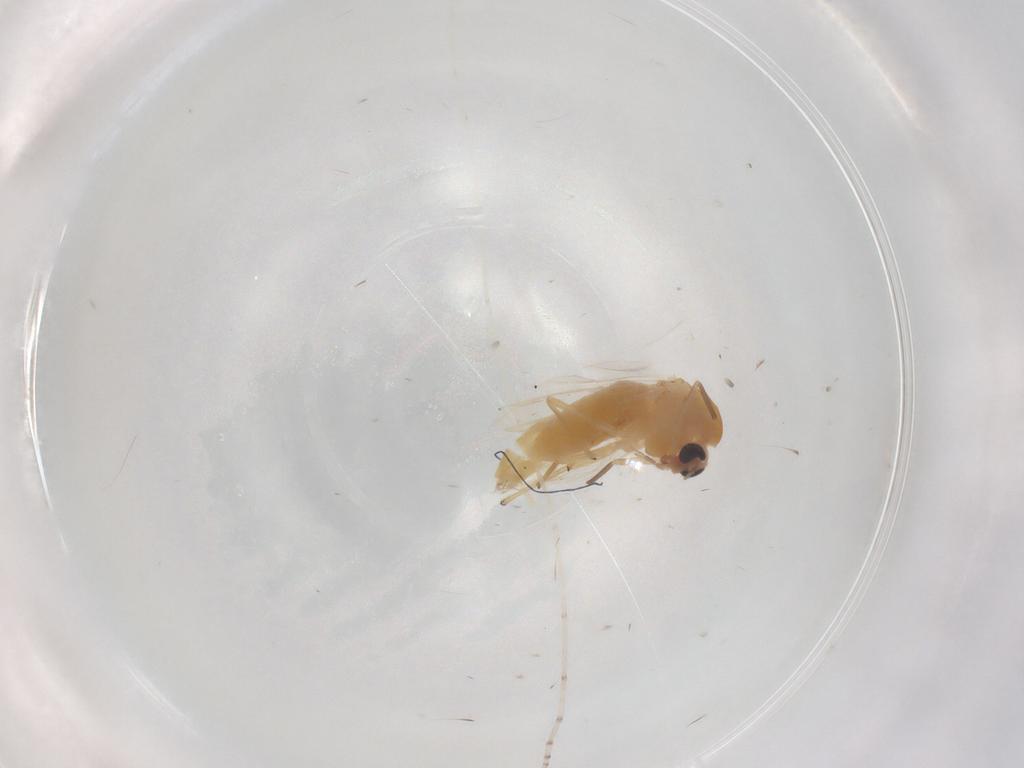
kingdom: Animalia
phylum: Arthropoda
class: Insecta
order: Diptera
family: Chironomidae
